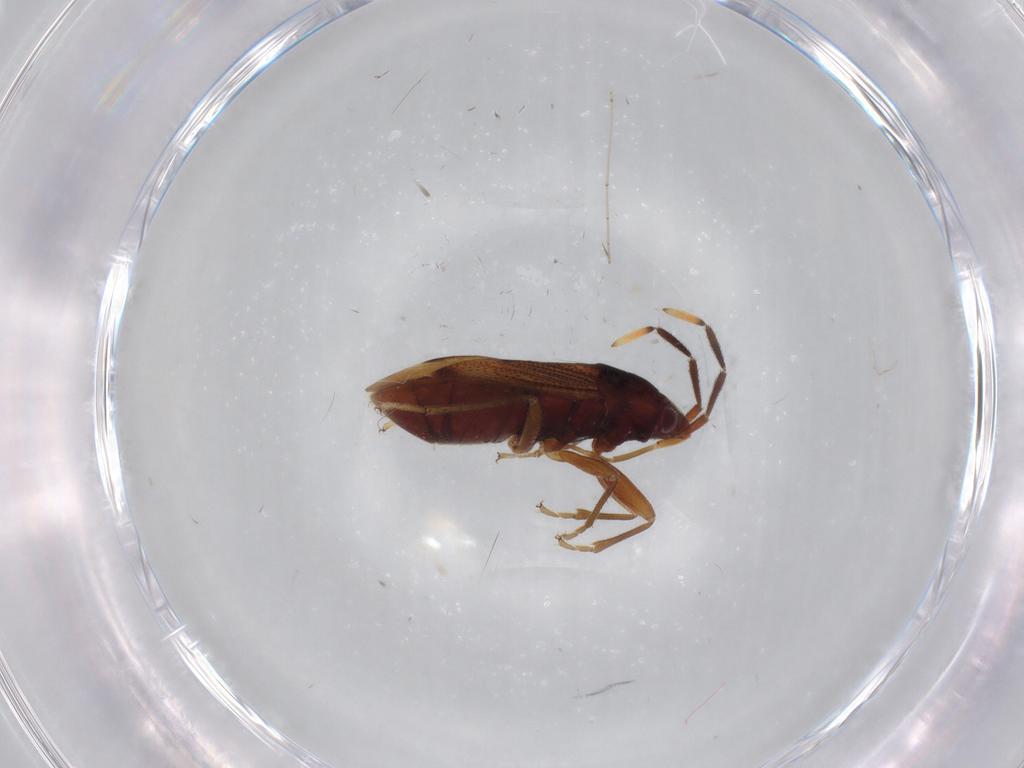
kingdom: Animalia
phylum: Arthropoda
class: Insecta
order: Hemiptera
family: Rhyparochromidae
